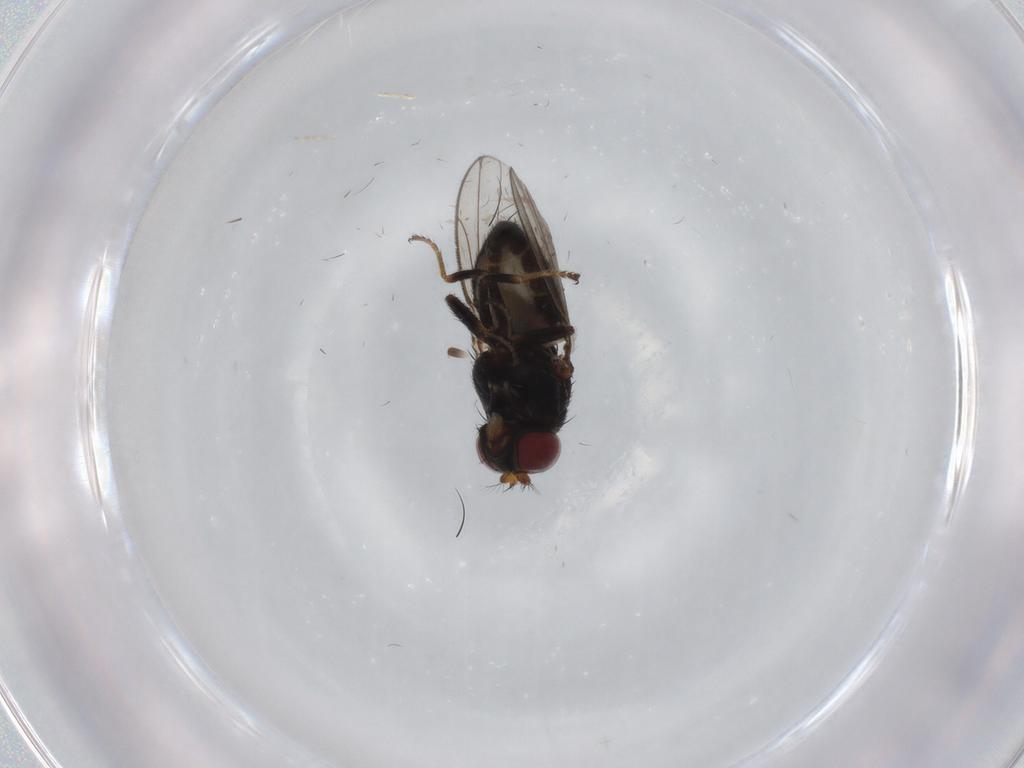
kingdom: Animalia
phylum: Arthropoda
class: Insecta
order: Diptera
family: Ephydridae
